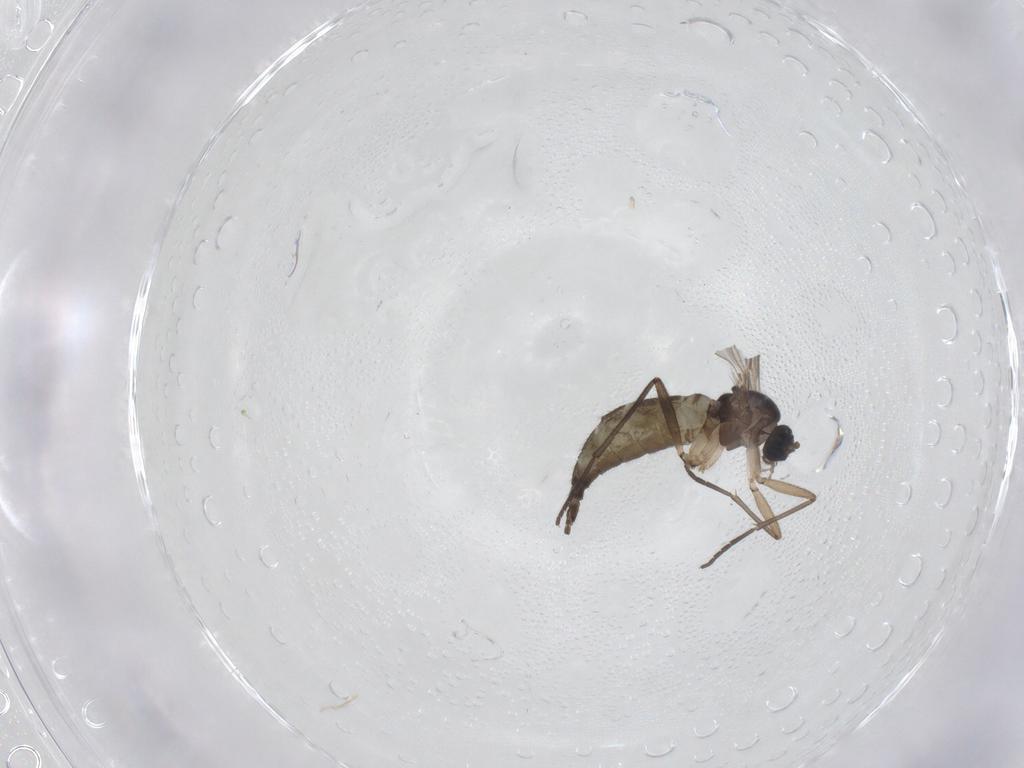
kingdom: Animalia
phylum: Arthropoda
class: Insecta
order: Diptera
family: Sciaridae
